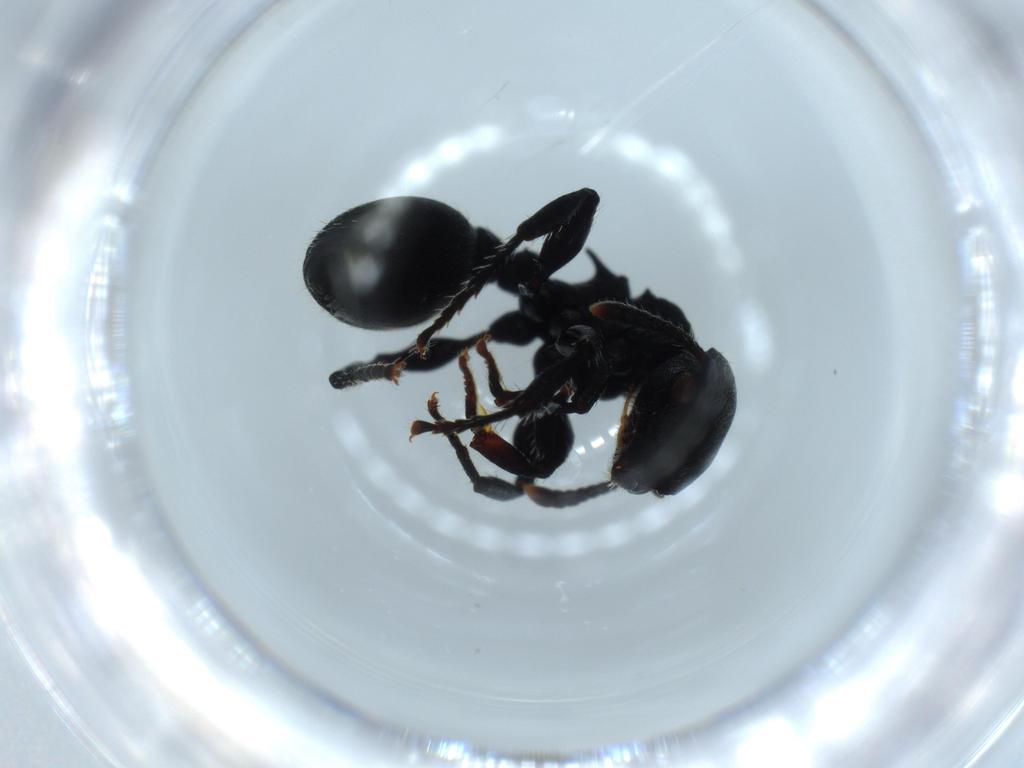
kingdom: Animalia
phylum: Arthropoda
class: Insecta
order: Hymenoptera
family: Formicidae
